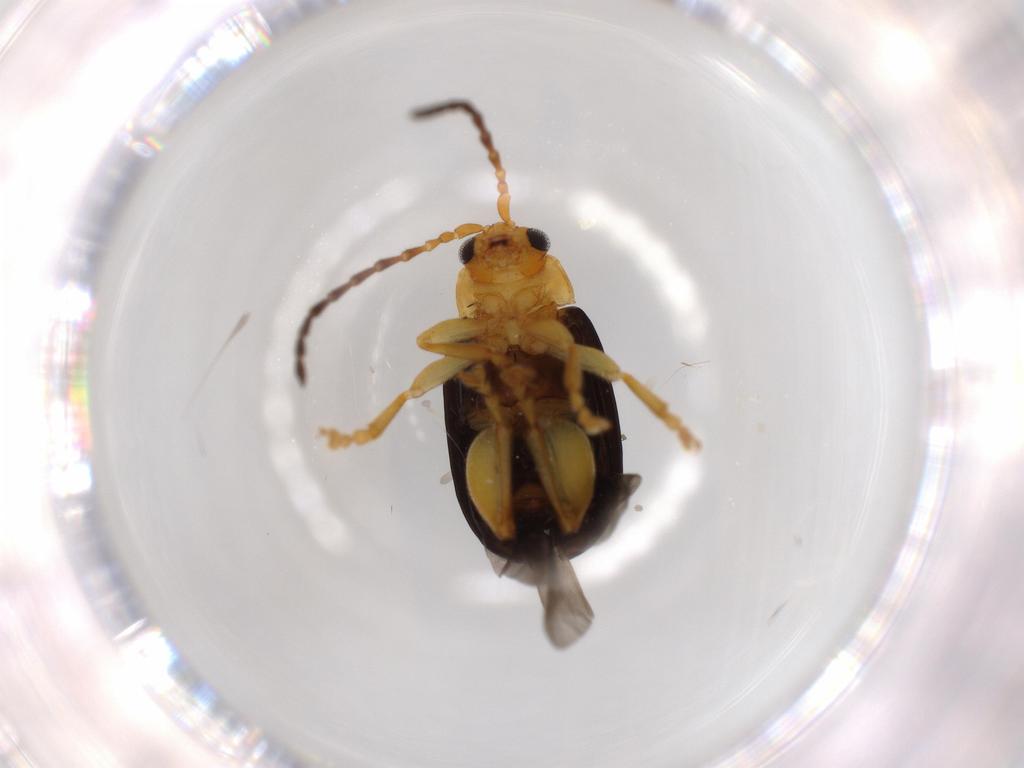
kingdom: Animalia
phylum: Arthropoda
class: Insecta
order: Coleoptera
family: Chrysomelidae
